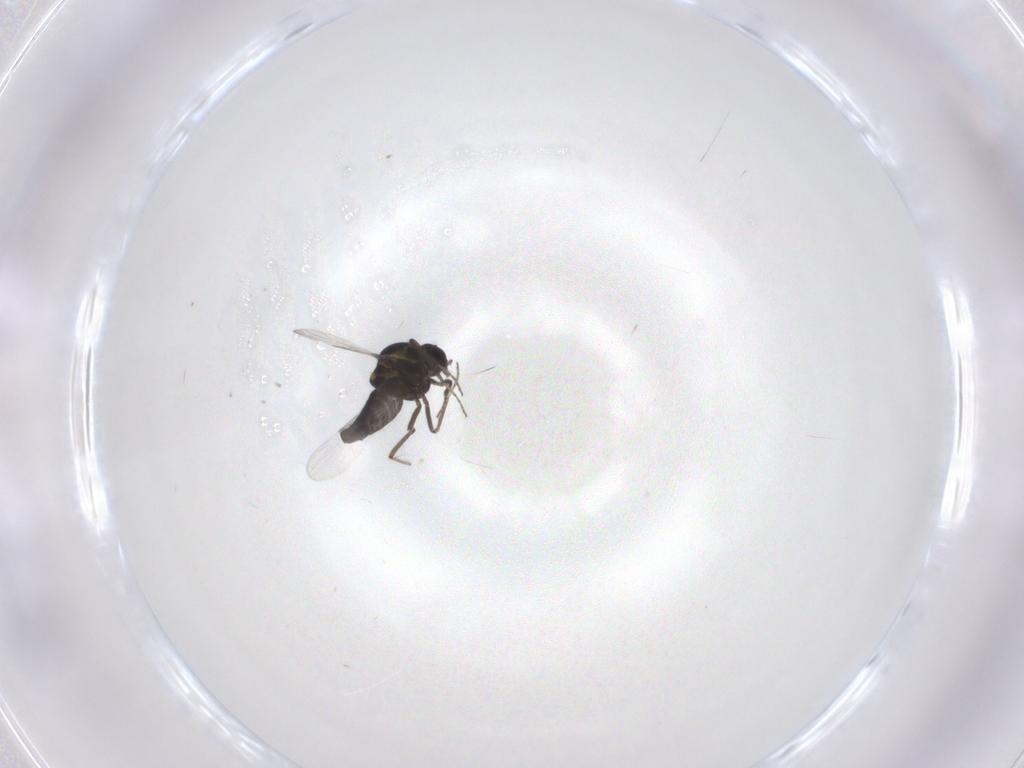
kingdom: Animalia
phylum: Arthropoda
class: Insecta
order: Diptera
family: Ceratopogonidae
